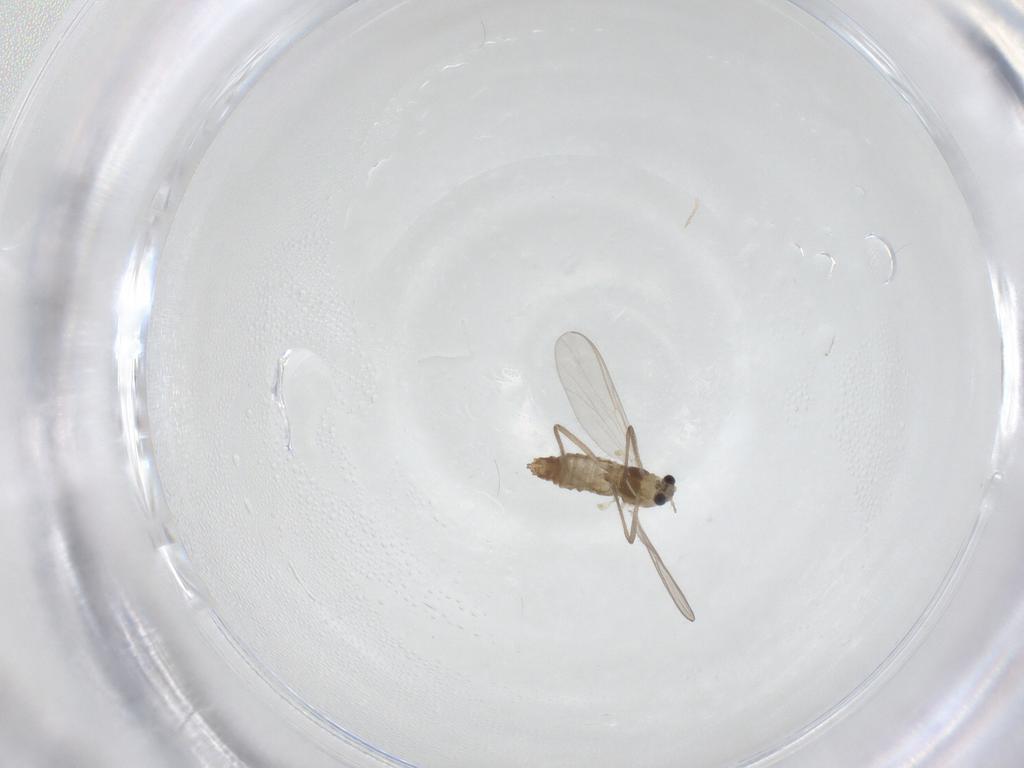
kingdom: Animalia
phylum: Arthropoda
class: Insecta
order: Diptera
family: Chironomidae
